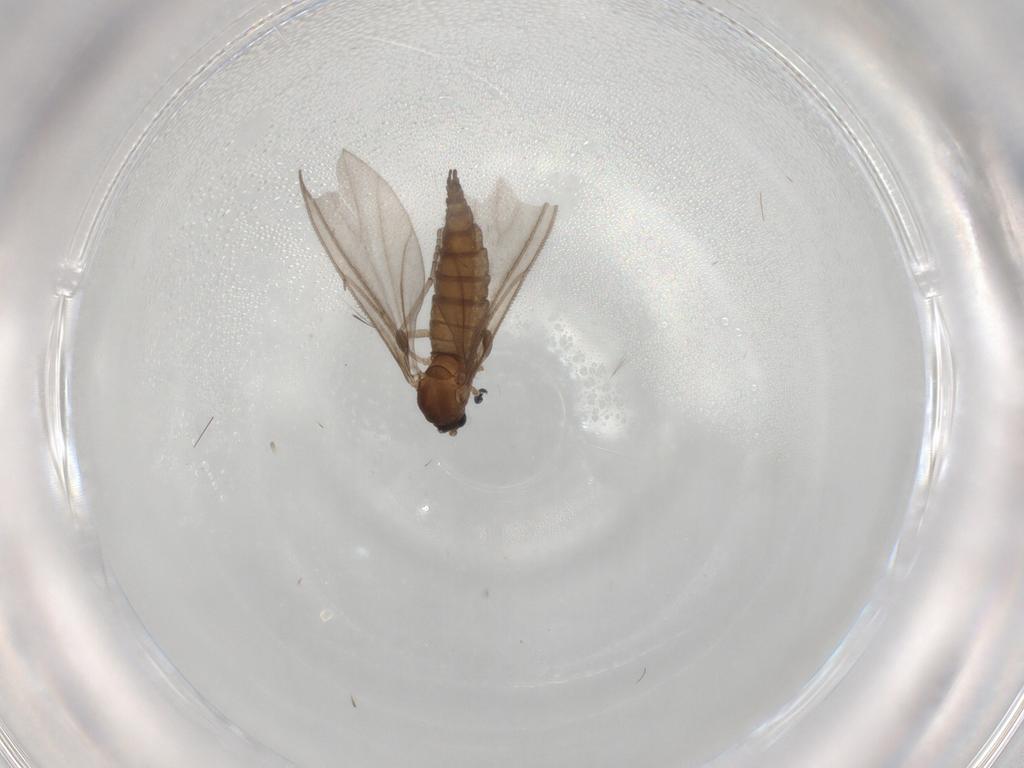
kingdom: Animalia
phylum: Arthropoda
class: Insecta
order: Diptera
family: Sciaridae
